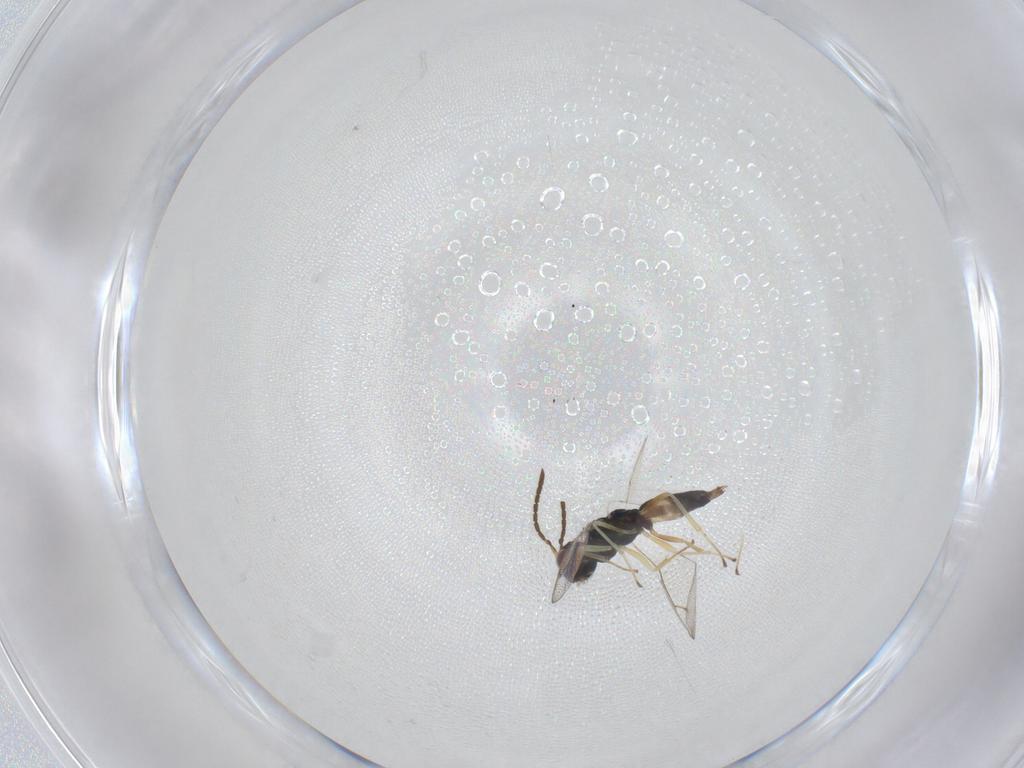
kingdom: Animalia
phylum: Arthropoda
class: Insecta
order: Hymenoptera
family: Pteromalidae
